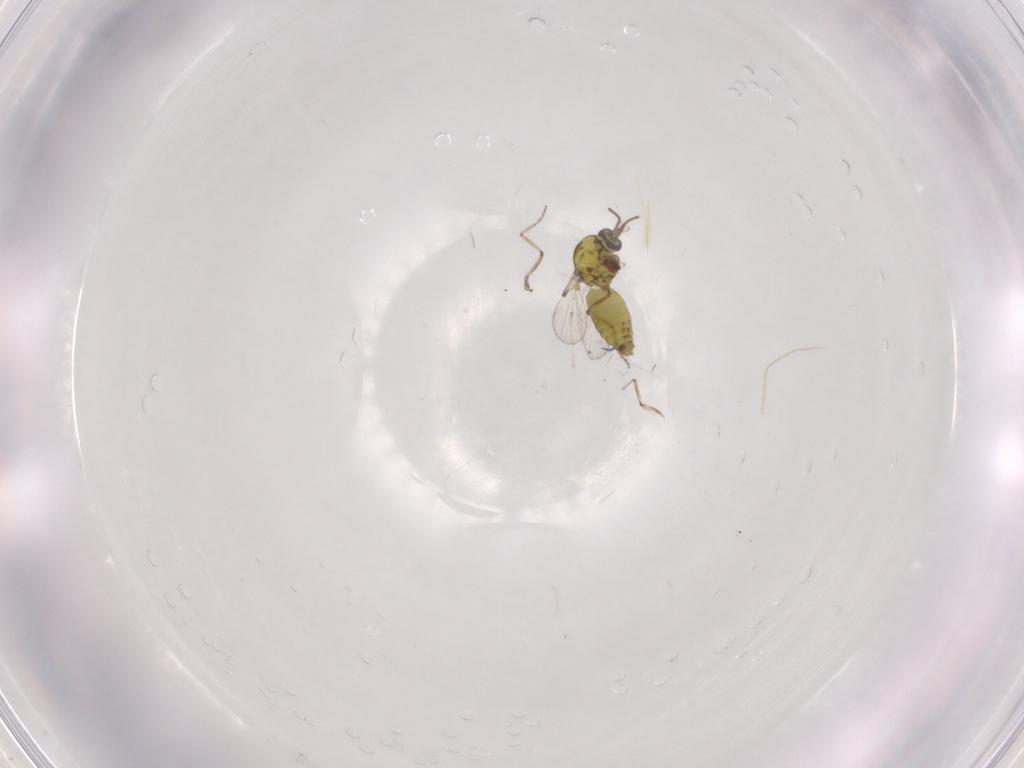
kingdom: Animalia
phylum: Arthropoda
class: Insecta
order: Diptera
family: Ceratopogonidae
